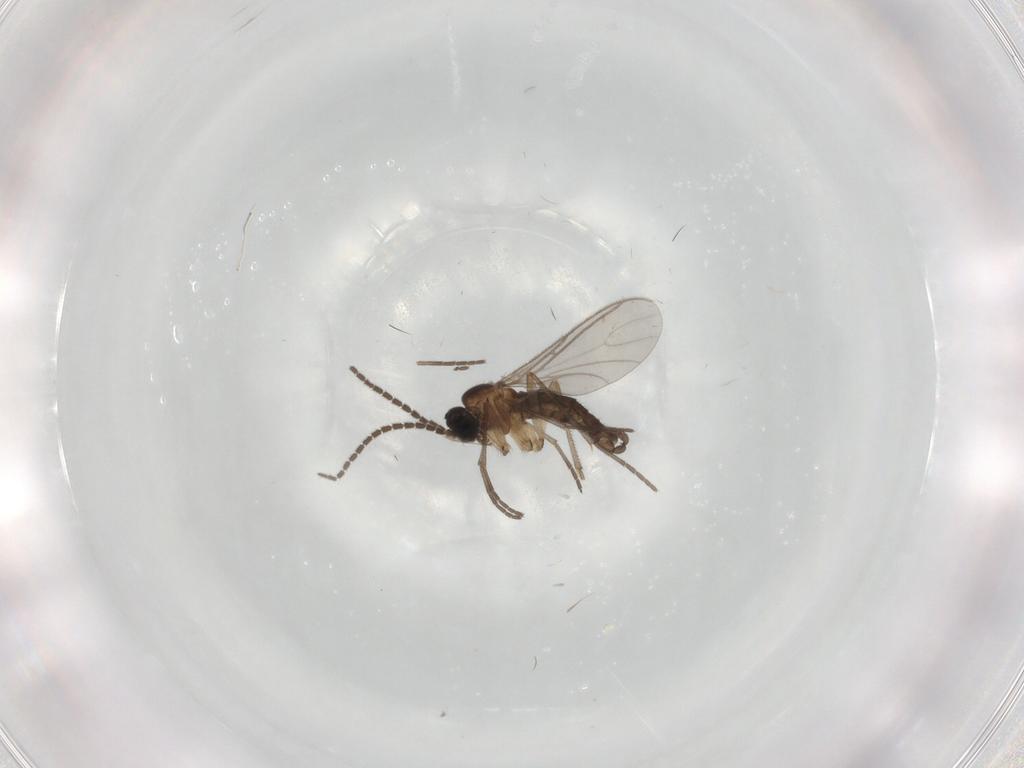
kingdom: Animalia
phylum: Arthropoda
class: Insecta
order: Diptera
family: Sciaridae
